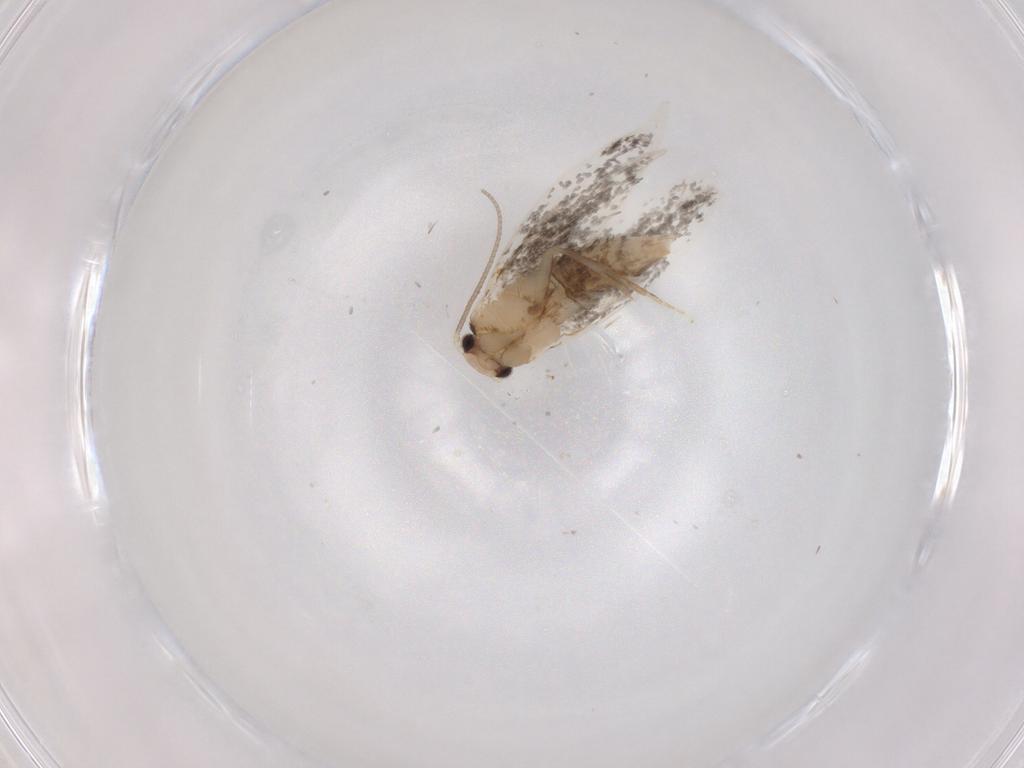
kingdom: Animalia
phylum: Arthropoda
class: Insecta
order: Lepidoptera
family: Tineidae
